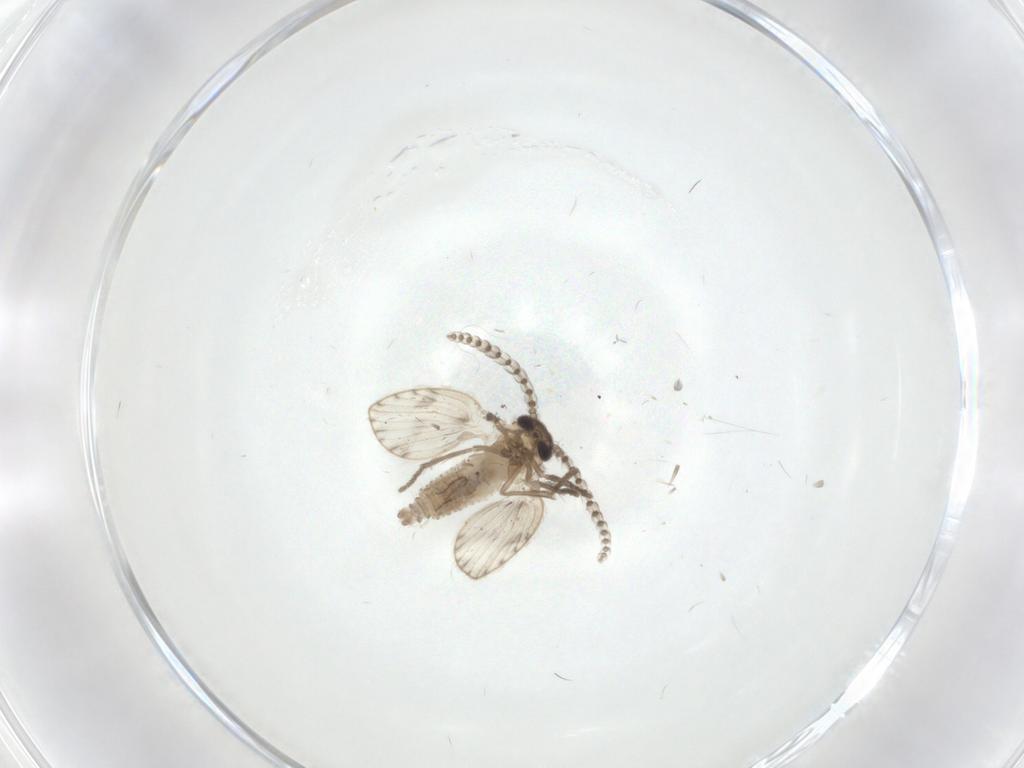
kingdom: Animalia
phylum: Arthropoda
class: Insecta
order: Diptera
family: Psychodidae
